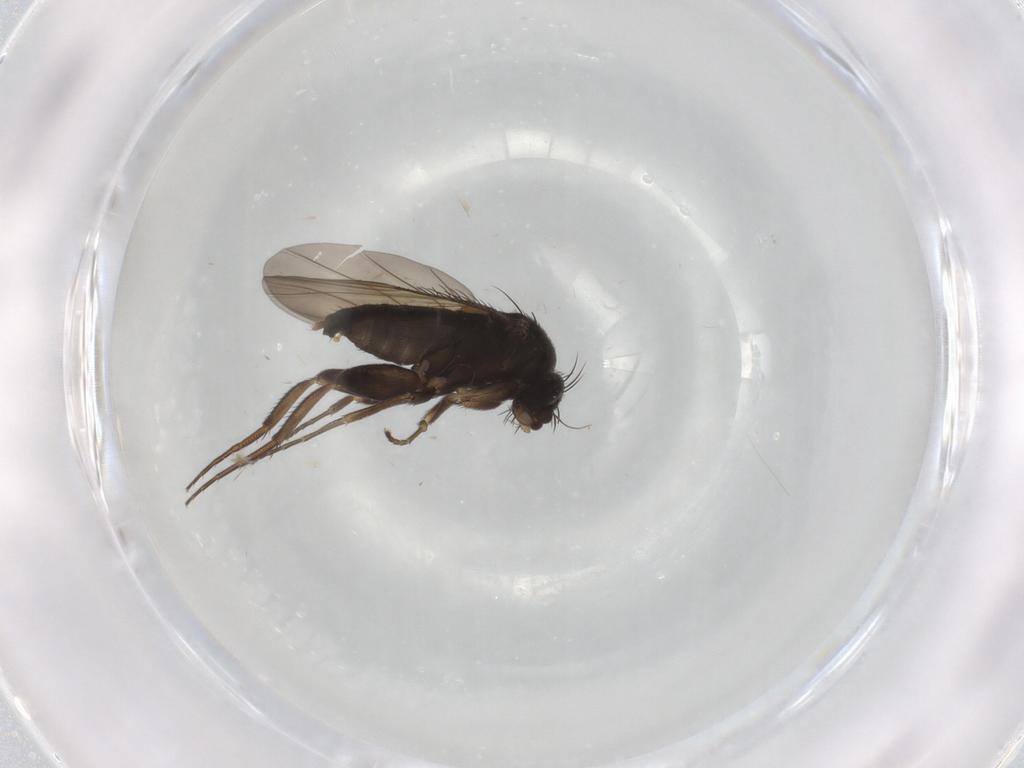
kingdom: Animalia
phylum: Arthropoda
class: Insecta
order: Diptera
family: Phoridae
